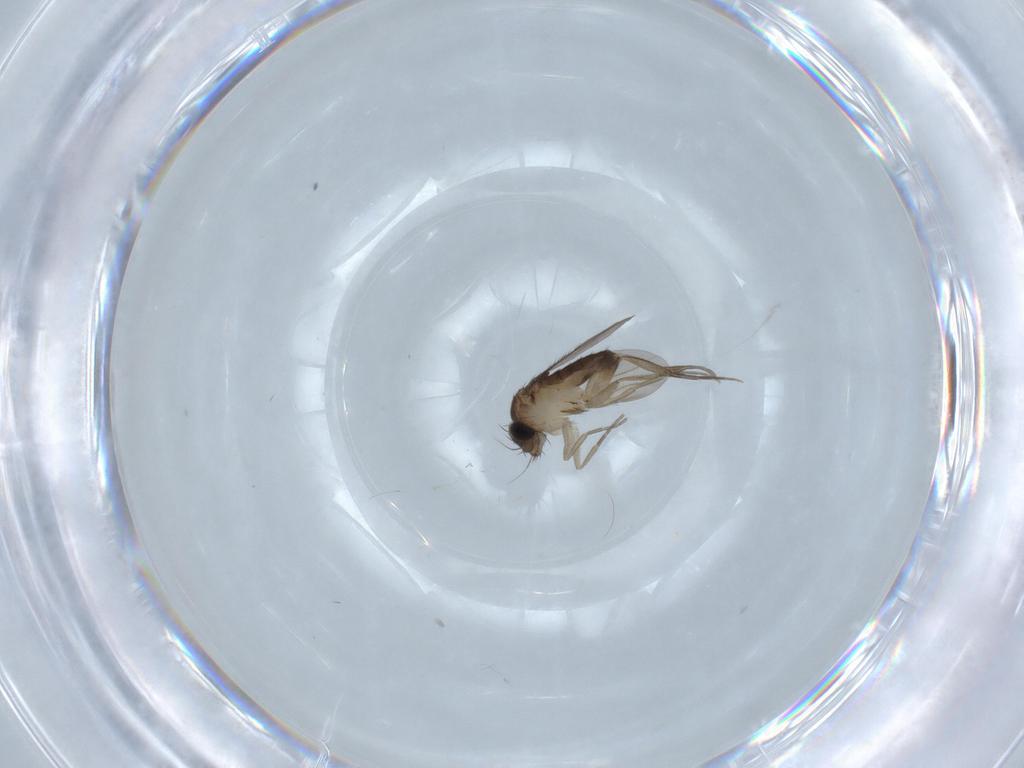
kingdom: Animalia
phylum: Arthropoda
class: Insecta
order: Diptera
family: Phoridae
